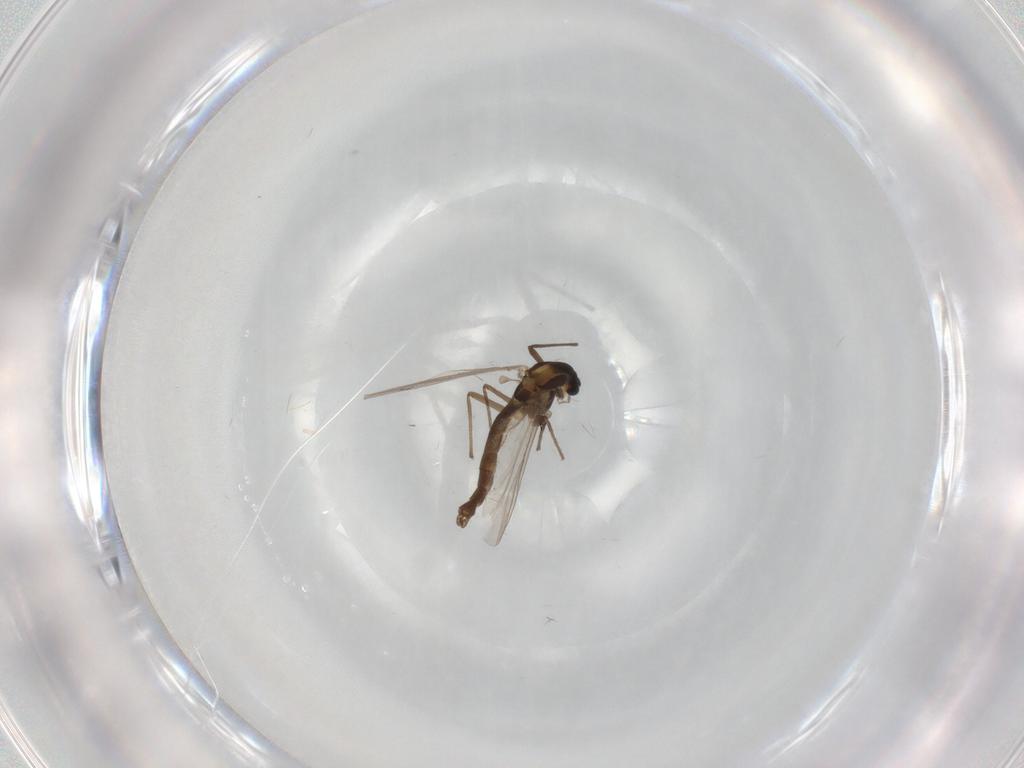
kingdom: Animalia
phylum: Arthropoda
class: Insecta
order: Diptera
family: Chironomidae
